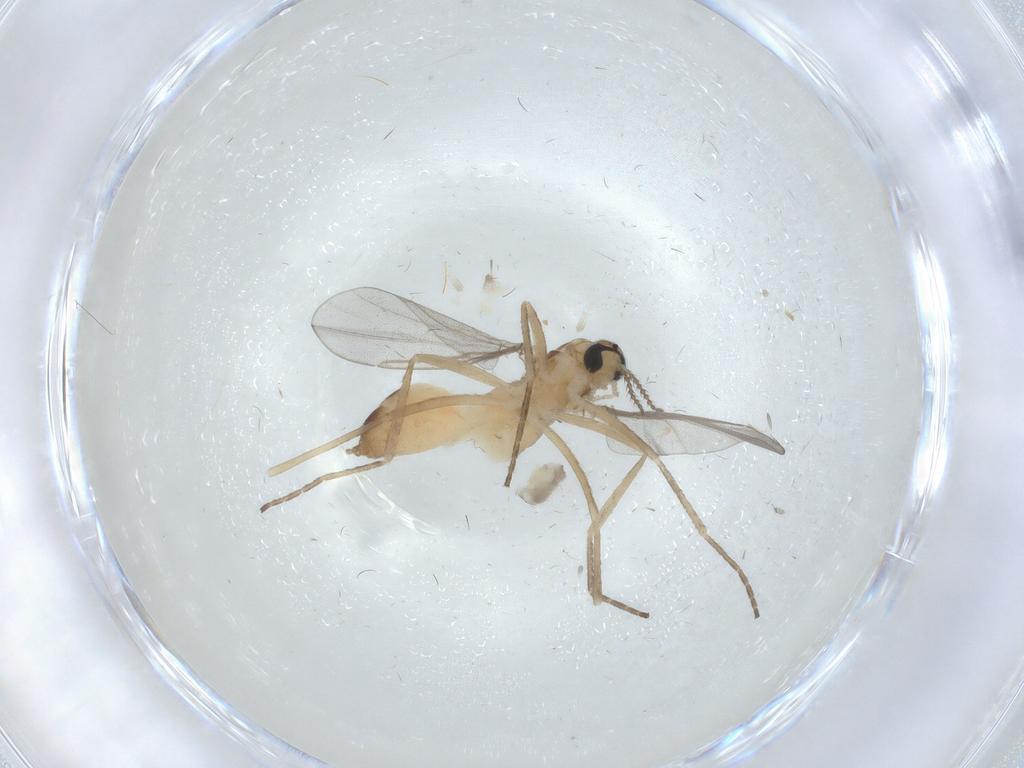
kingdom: Animalia
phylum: Arthropoda
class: Insecta
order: Diptera
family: Cecidomyiidae
